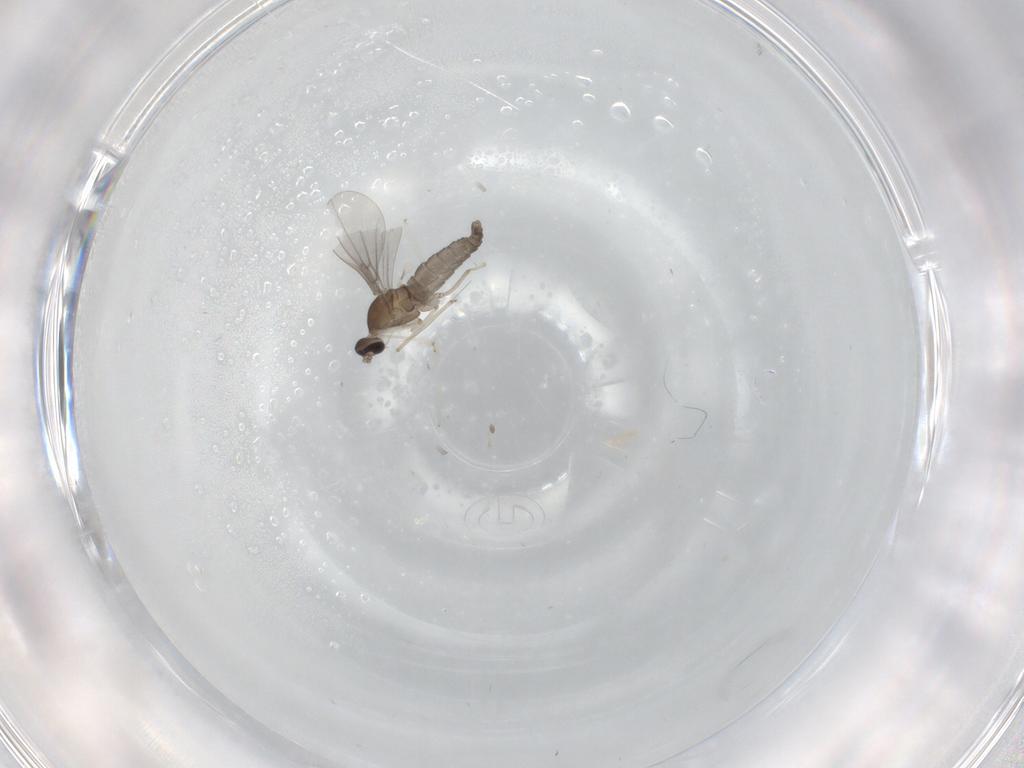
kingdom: Animalia
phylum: Arthropoda
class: Insecta
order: Diptera
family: Cecidomyiidae
